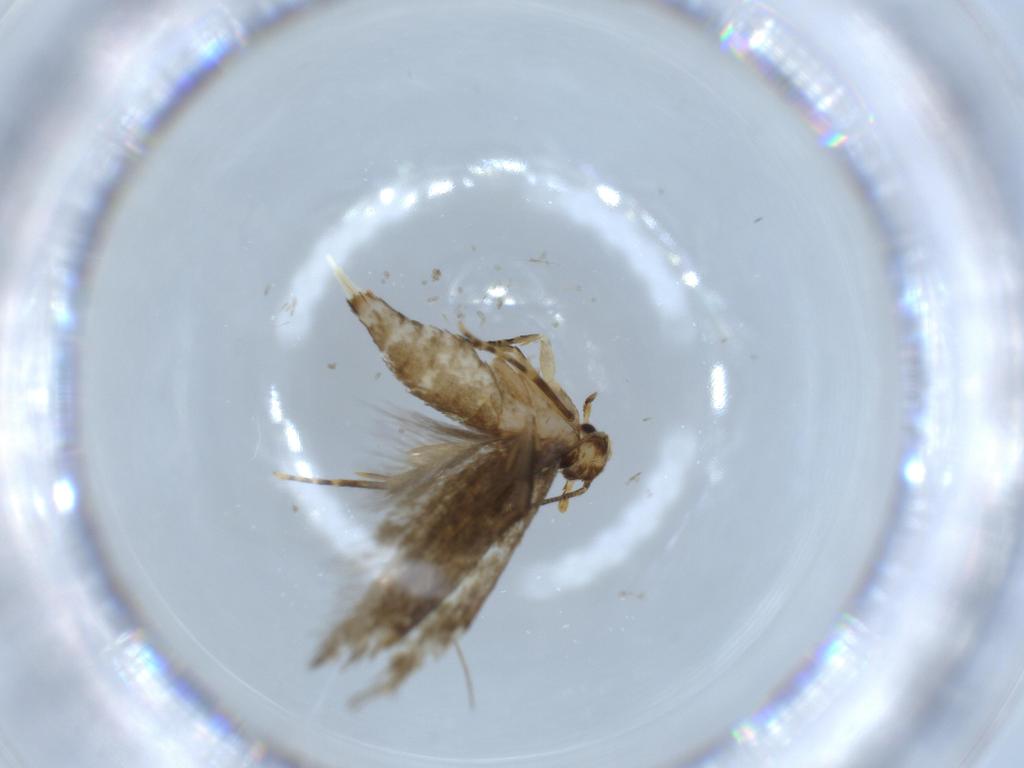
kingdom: Animalia
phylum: Arthropoda
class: Insecta
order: Lepidoptera
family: Tineidae
